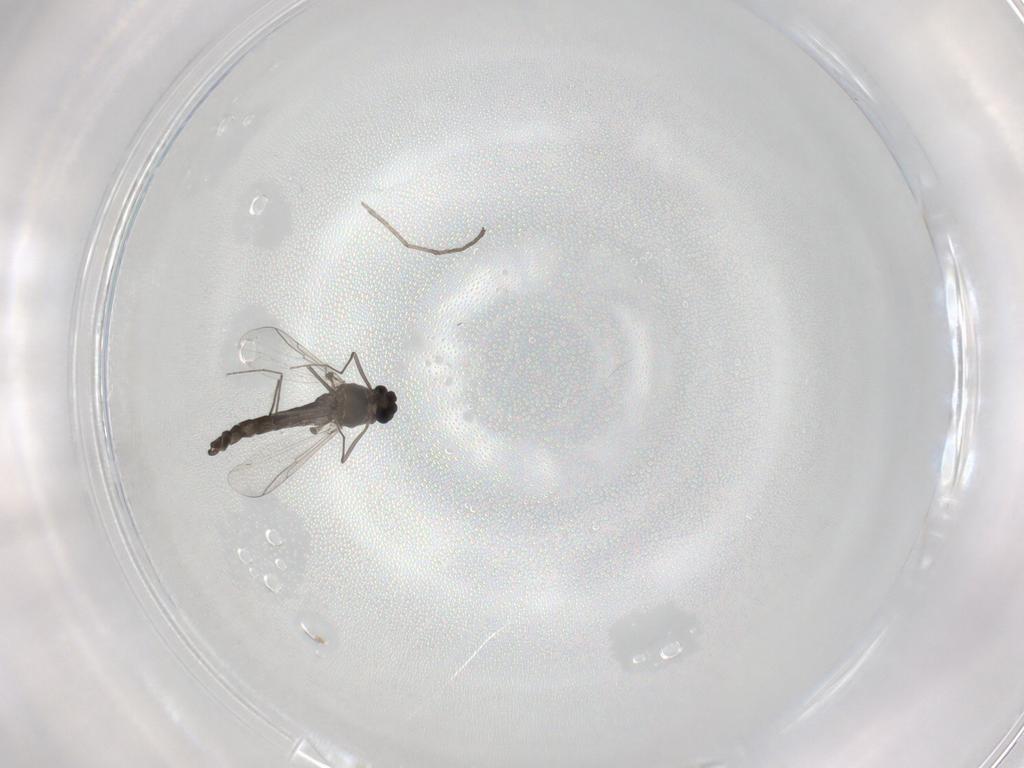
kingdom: Animalia
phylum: Arthropoda
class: Insecta
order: Diptera
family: Chironomidae
